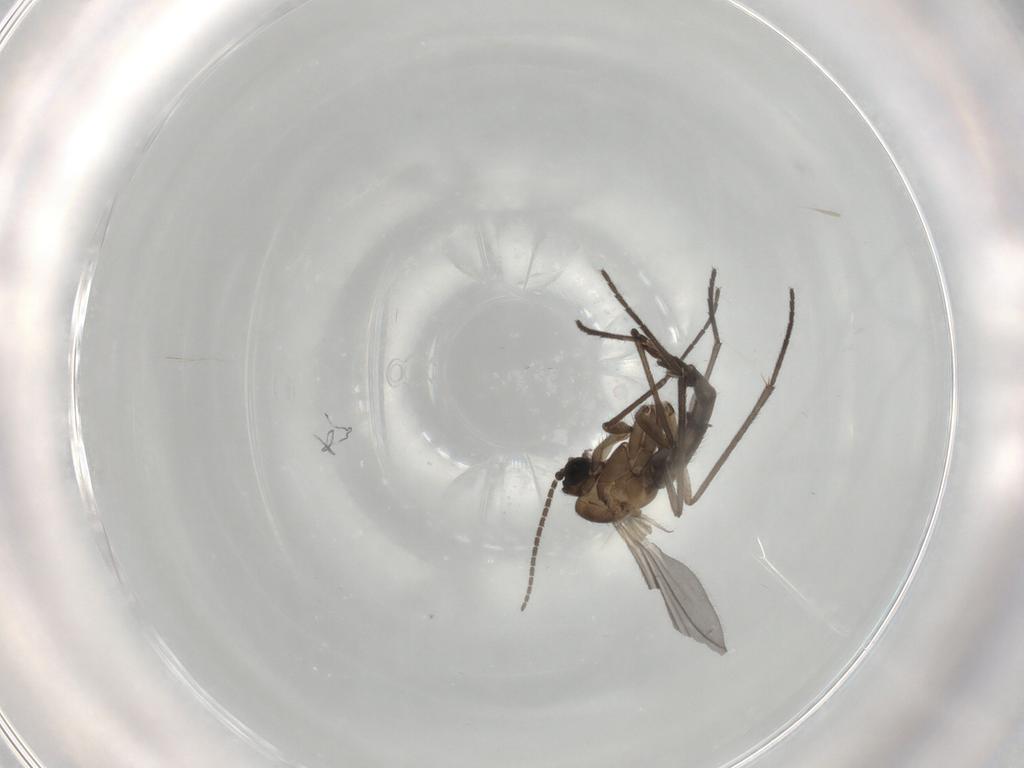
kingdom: Animalia
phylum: Arthropoda
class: Insecta
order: Diptera
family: Sciaridae
